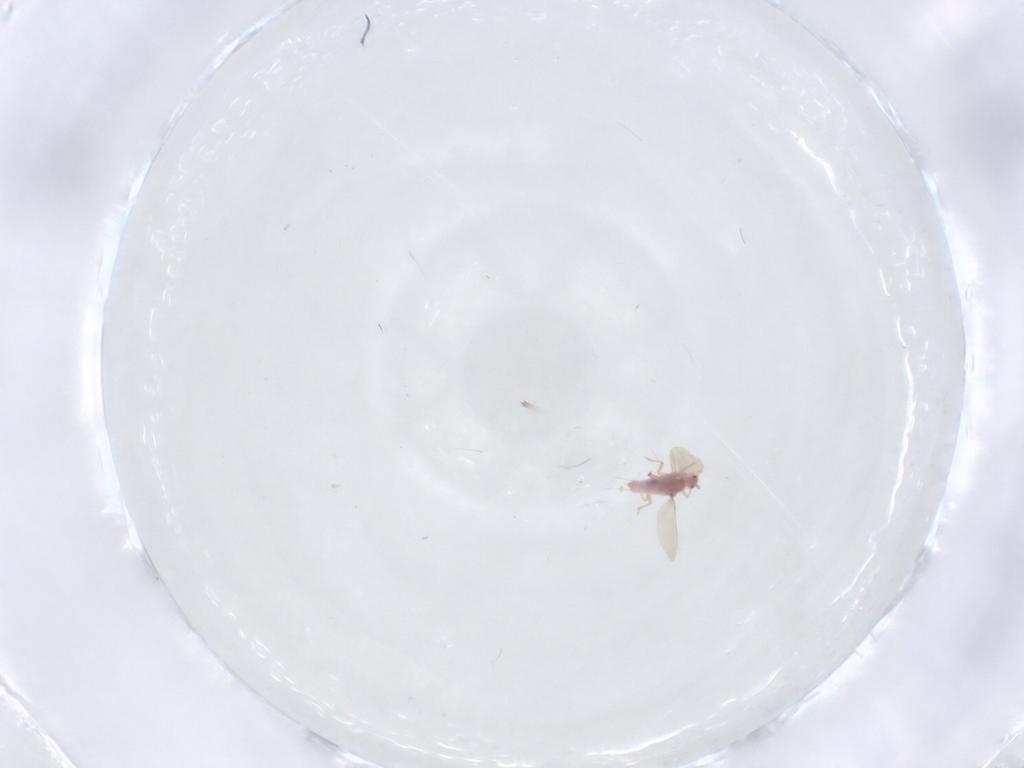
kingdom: Animalia
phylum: Arthropoda
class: Insecta
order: Hemiptera
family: Pseudococcidae
